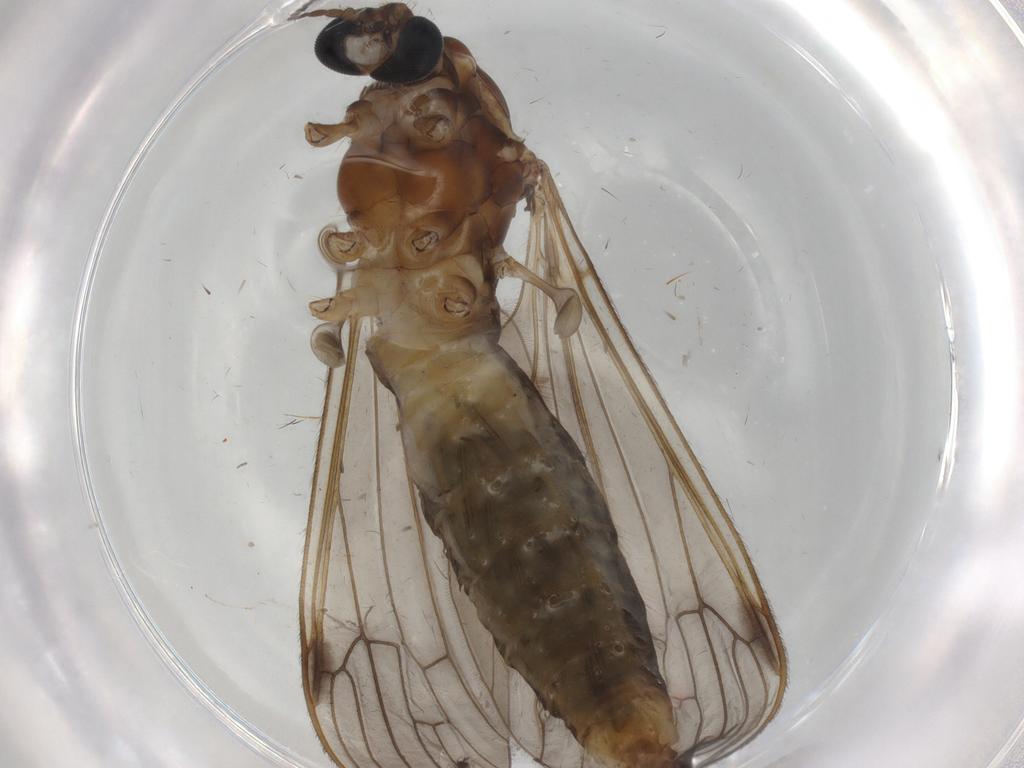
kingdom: Animalia
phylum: Arthropoda
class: Insecta
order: Diptera
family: Limoniidae
